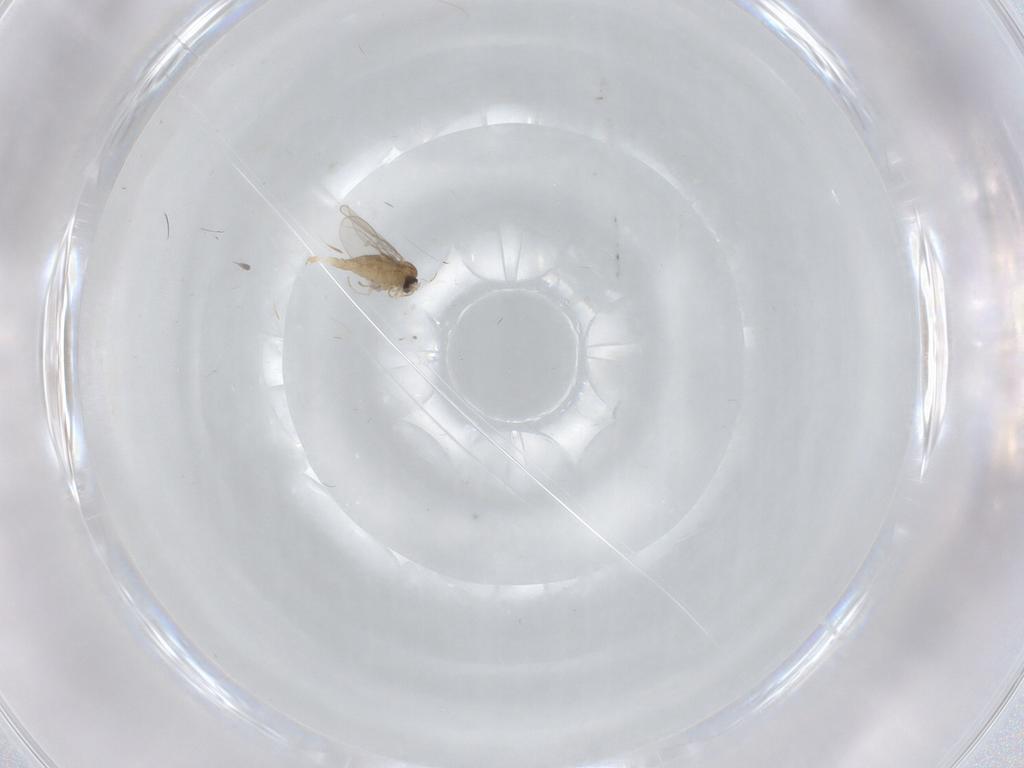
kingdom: Animalia
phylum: Arthropoda
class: Insecta
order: Diptera
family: Cecidomyiidae
